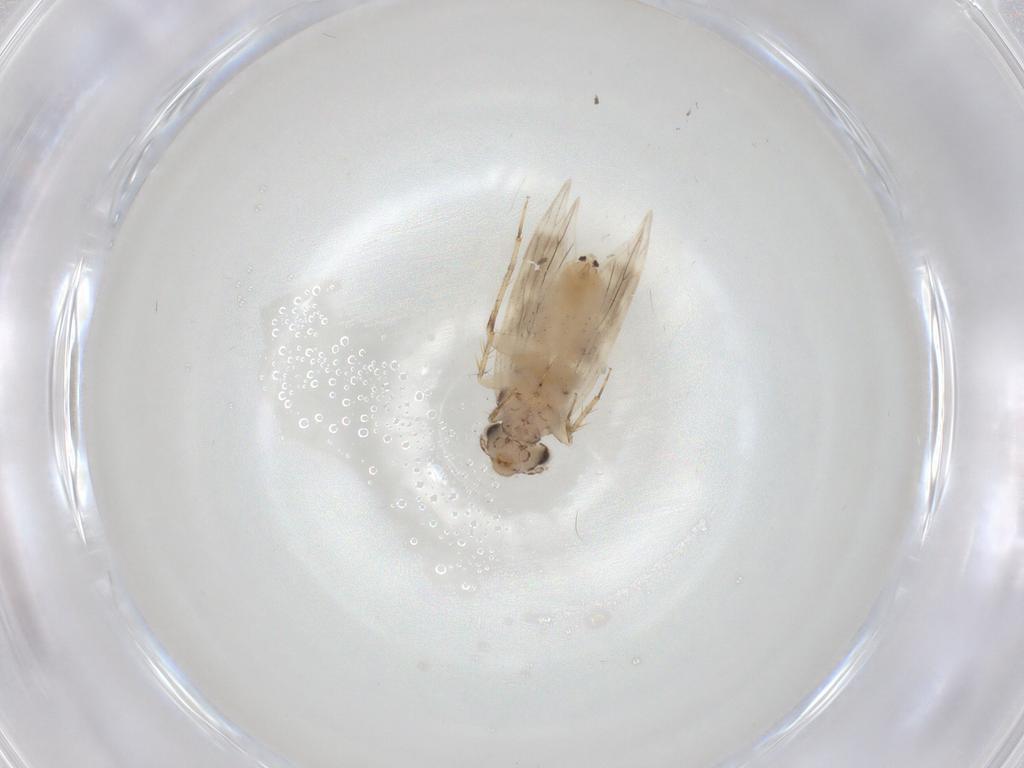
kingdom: Animalia
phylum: Arthropoda
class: Insecta
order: Psocodea
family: Lepidopsocidae
